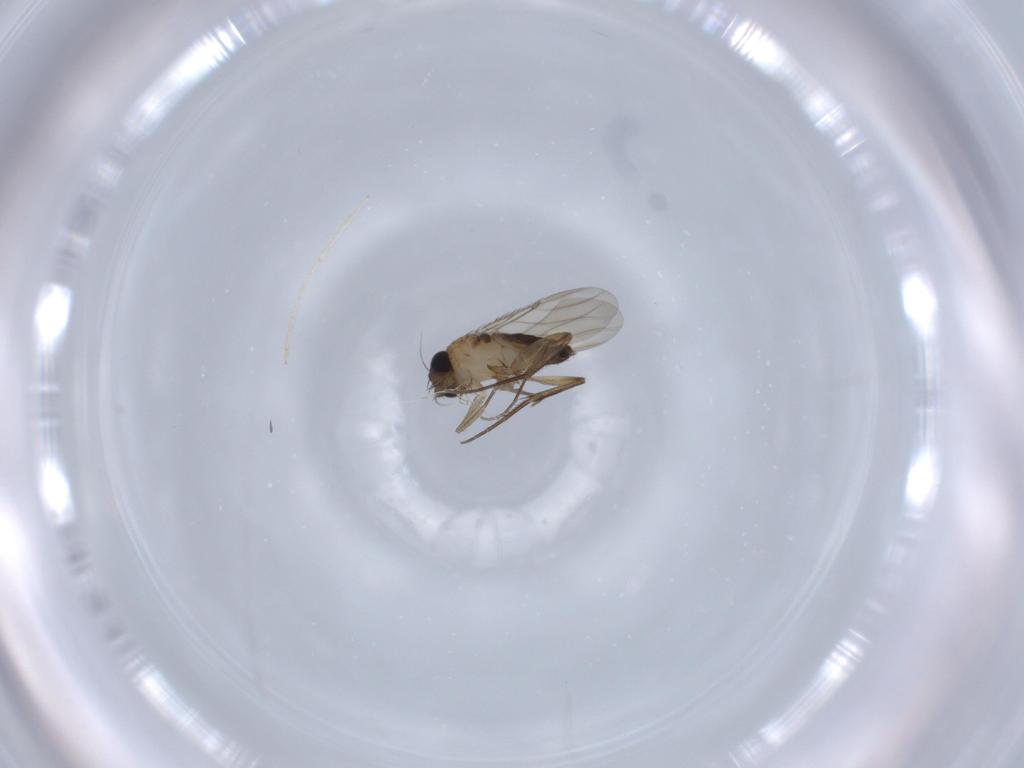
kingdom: Animalia
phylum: Arthropoda
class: Insecta
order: Diptera
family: Phoridae
